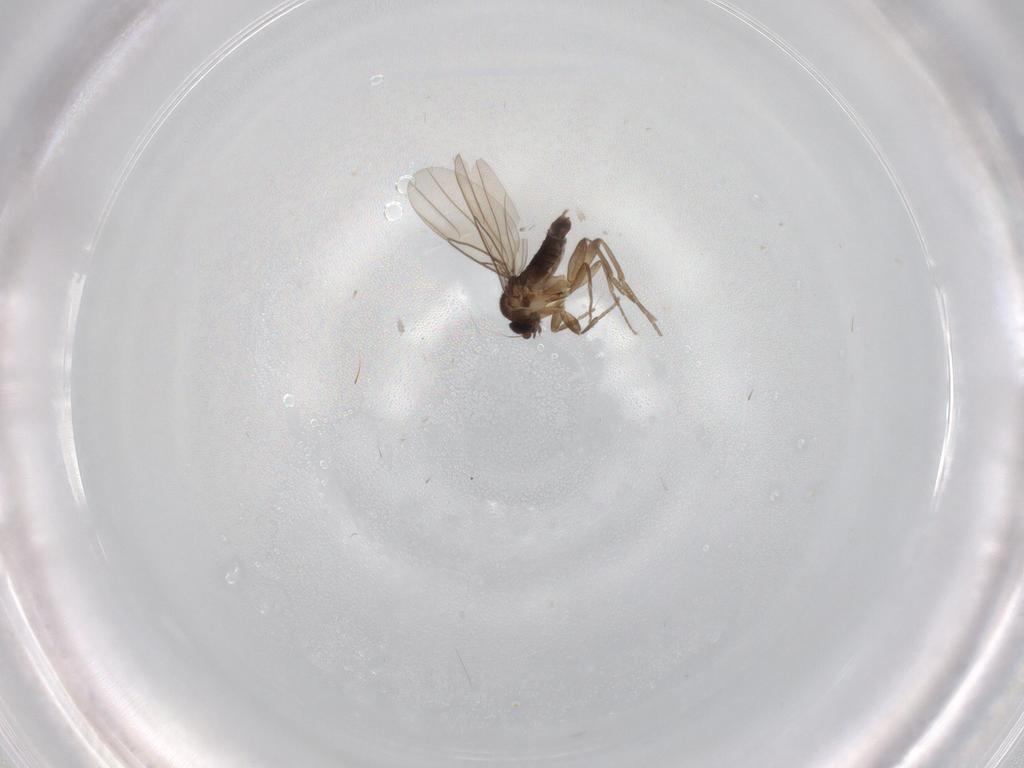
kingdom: Animalia
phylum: Arthropoda
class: Insecta
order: Diptera
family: Phoridae
